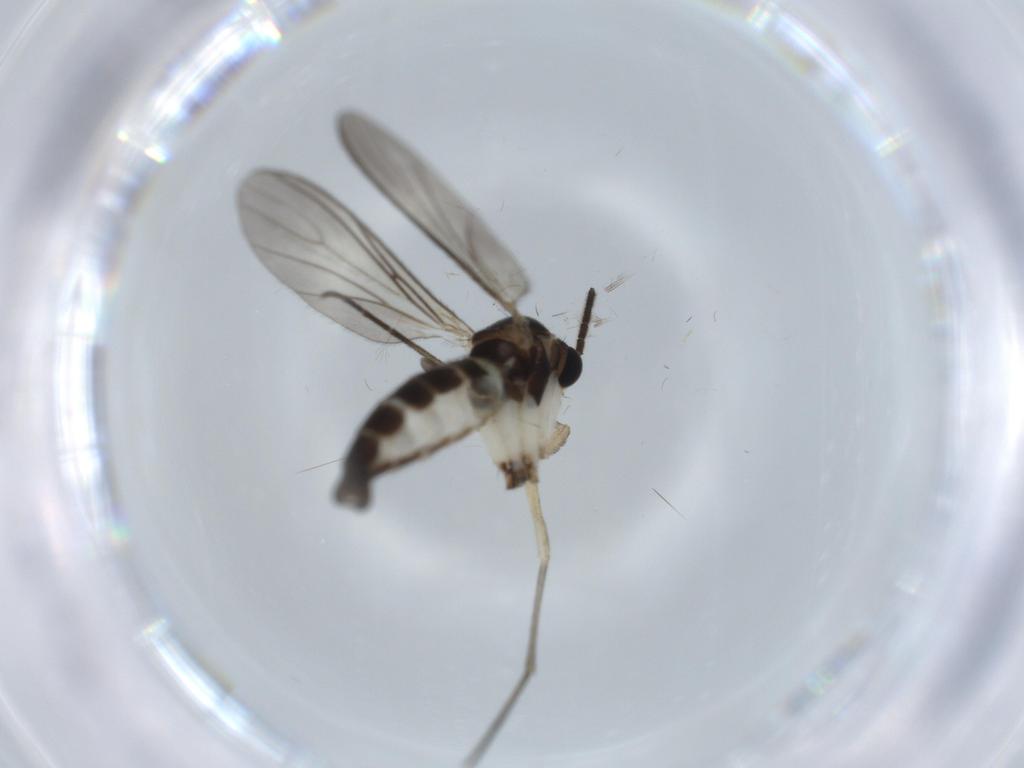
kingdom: Animalia
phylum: Arthropoda
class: Insecta
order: Diptera
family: Sciaridae
